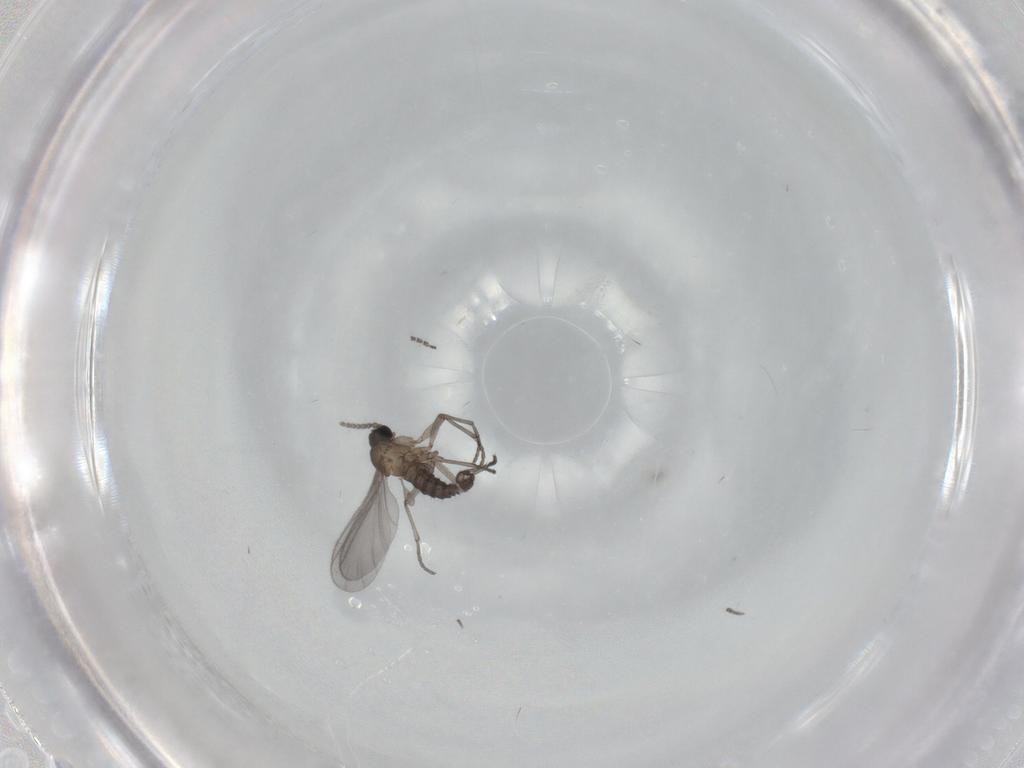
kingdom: Animalia
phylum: Arthropoda
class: Insecta
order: Diptera
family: Sciaridae
